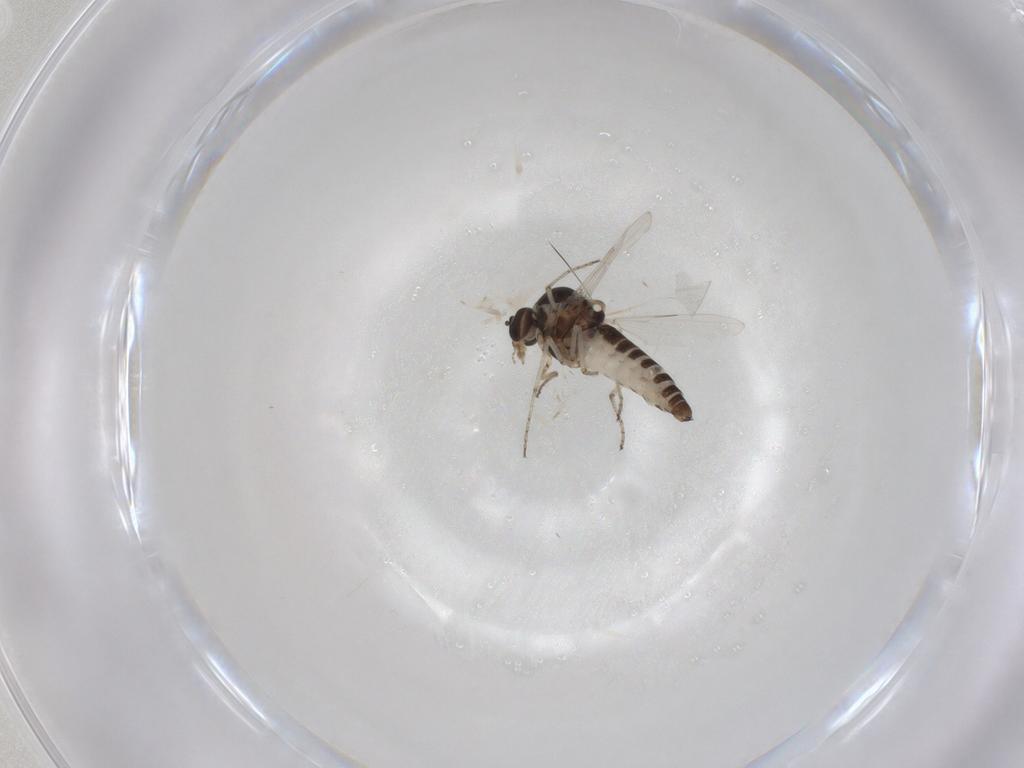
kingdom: Animalia
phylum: Arthropoda
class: Insecta
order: Diptera
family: Ceratopogonidae
